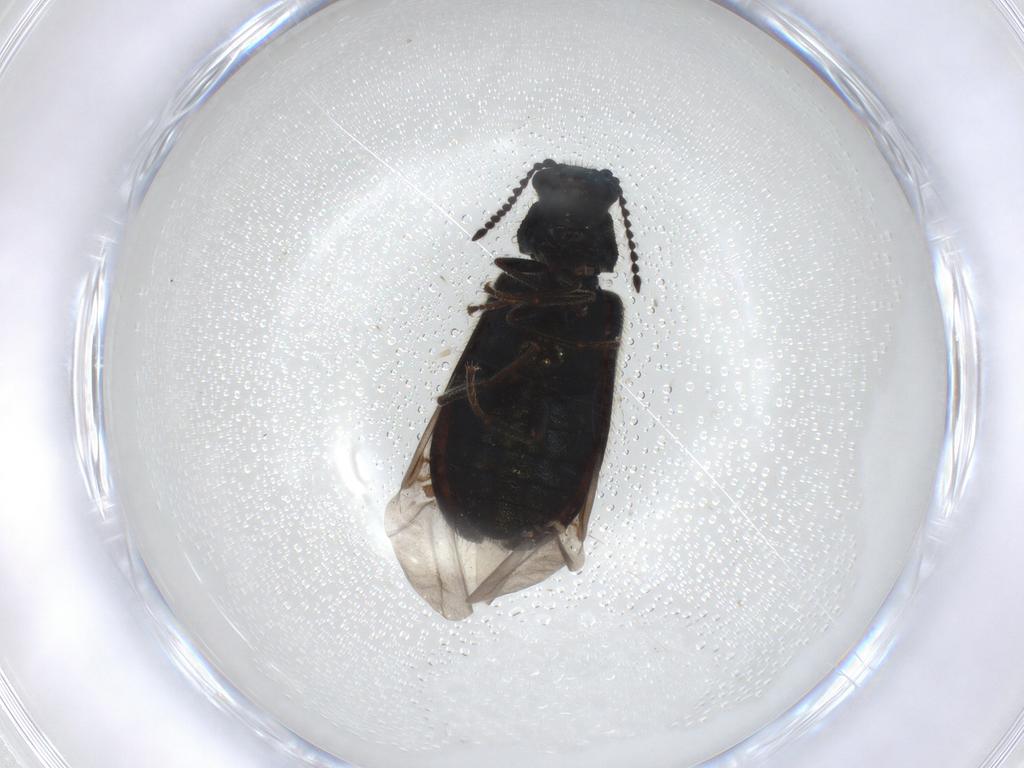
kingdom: Animalia
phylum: Arthropoda
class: Insecta
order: Coleoptera
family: Melyridae
